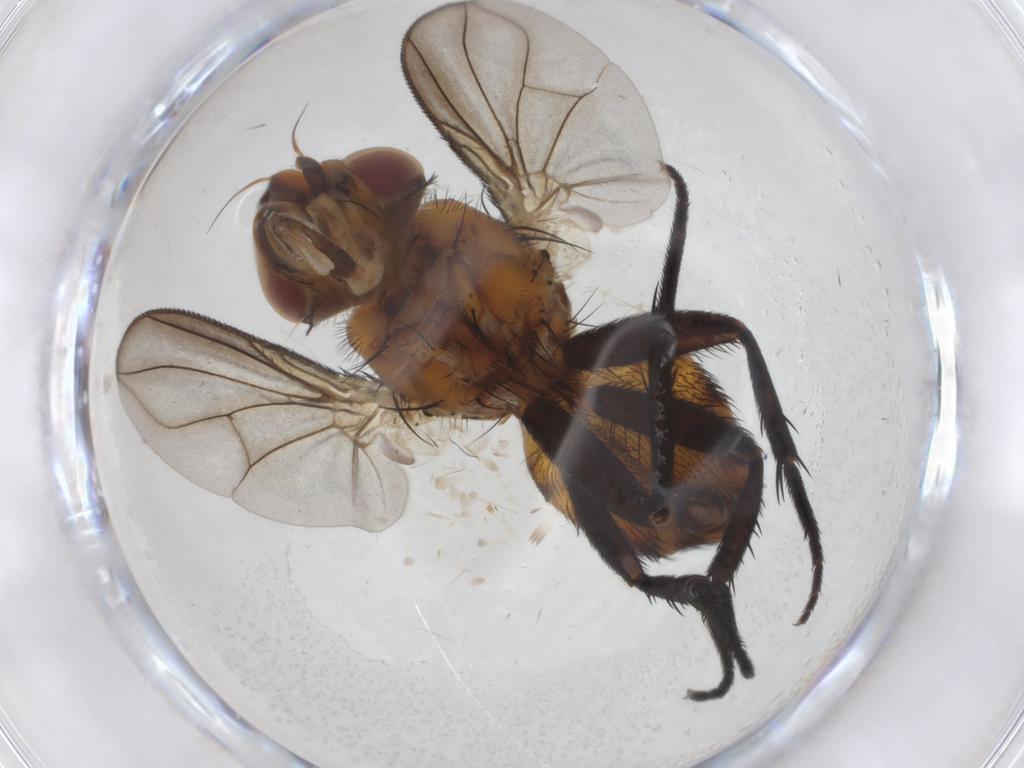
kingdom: Animalia
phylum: Arthropoda
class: Insecta
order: Diptera
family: Tachinidae
